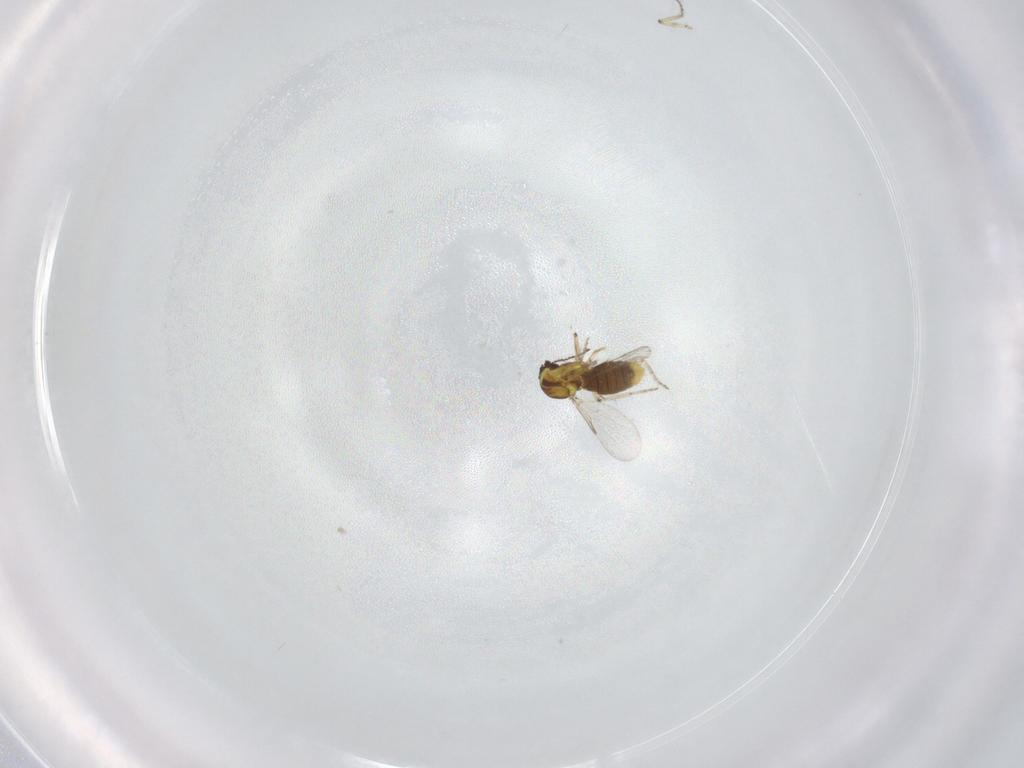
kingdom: Animalia
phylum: Arthropoda
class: Insecta
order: Diptera
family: Ceratopogonidae
